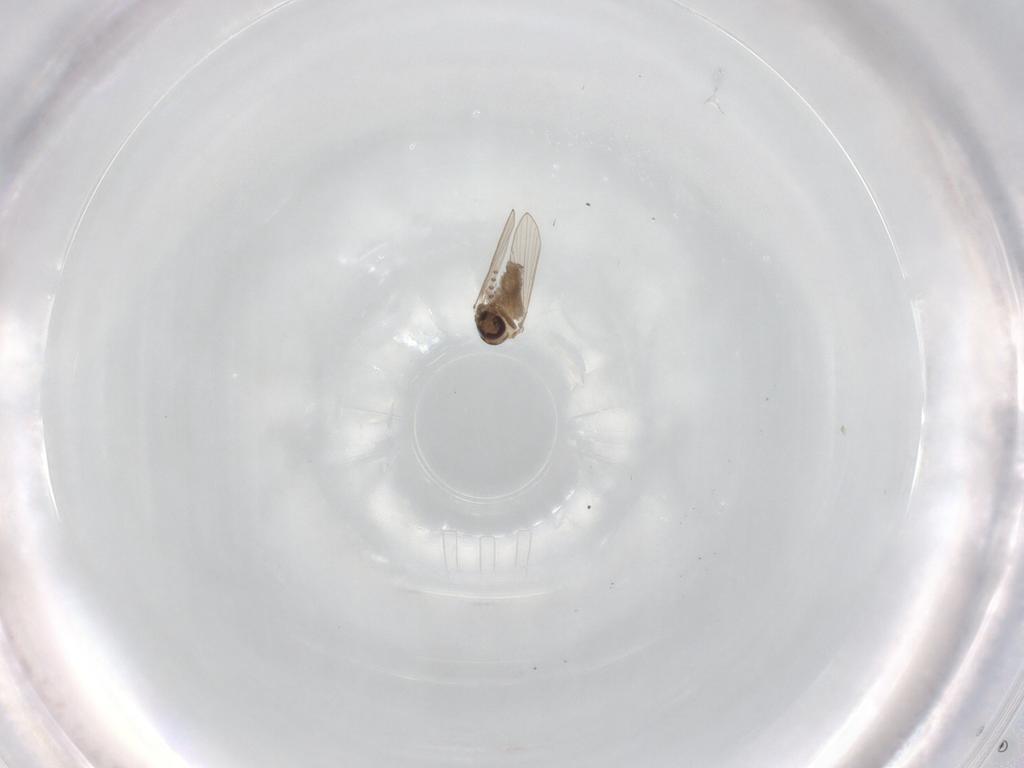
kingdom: Animalia
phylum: Arthropoda
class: Insecta
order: Diptera
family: Psychodidae
